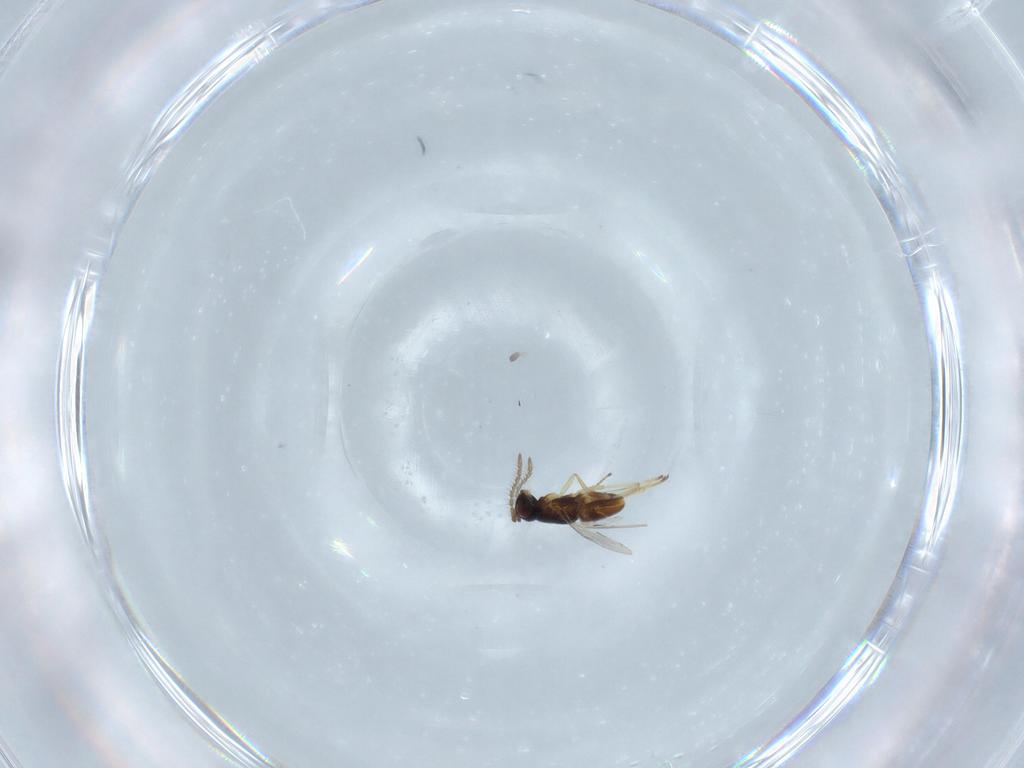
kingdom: Animalia
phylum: Arthropoda
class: Insecta
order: Hymenoptera
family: Encyrtidae
